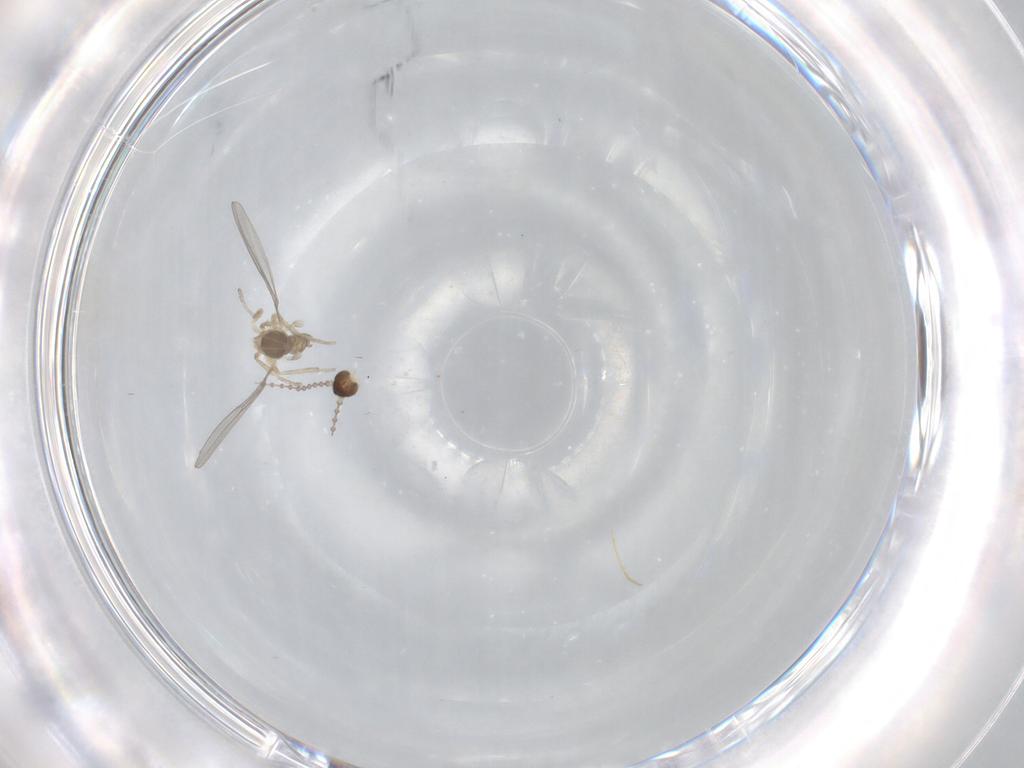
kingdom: Animalia
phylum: Arthropoda
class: Insecta
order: Diptera
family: Cecidomyiidae
